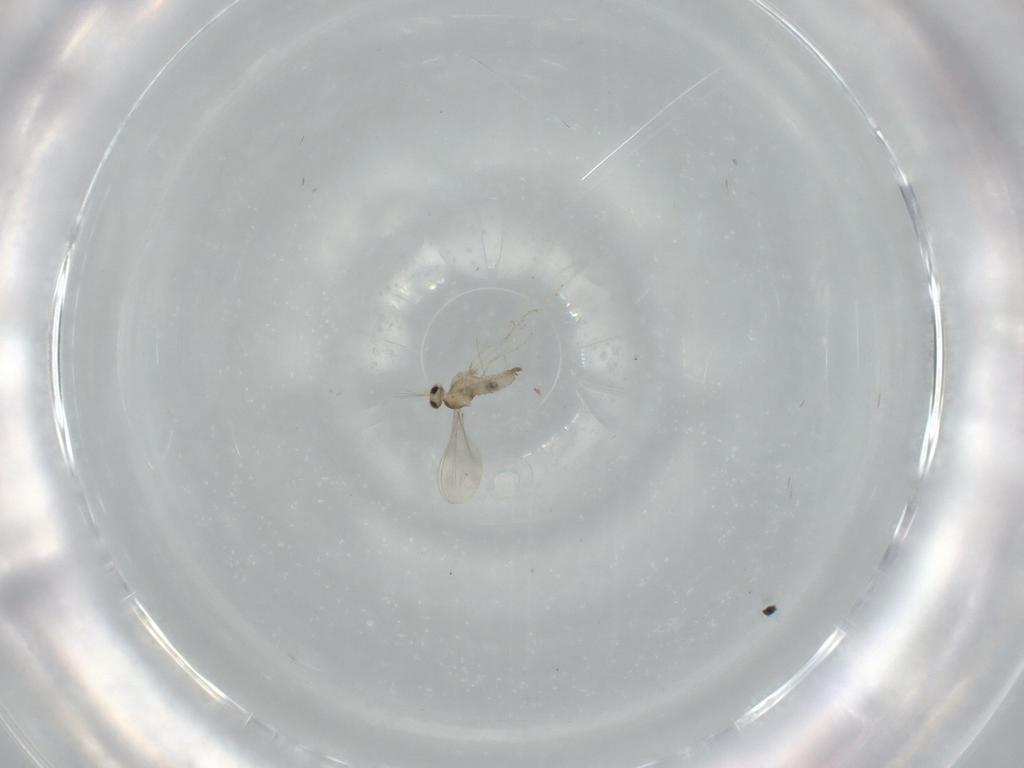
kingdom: Animalia
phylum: Arthropoda
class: Insecta
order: Diptera
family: Sciaridae
